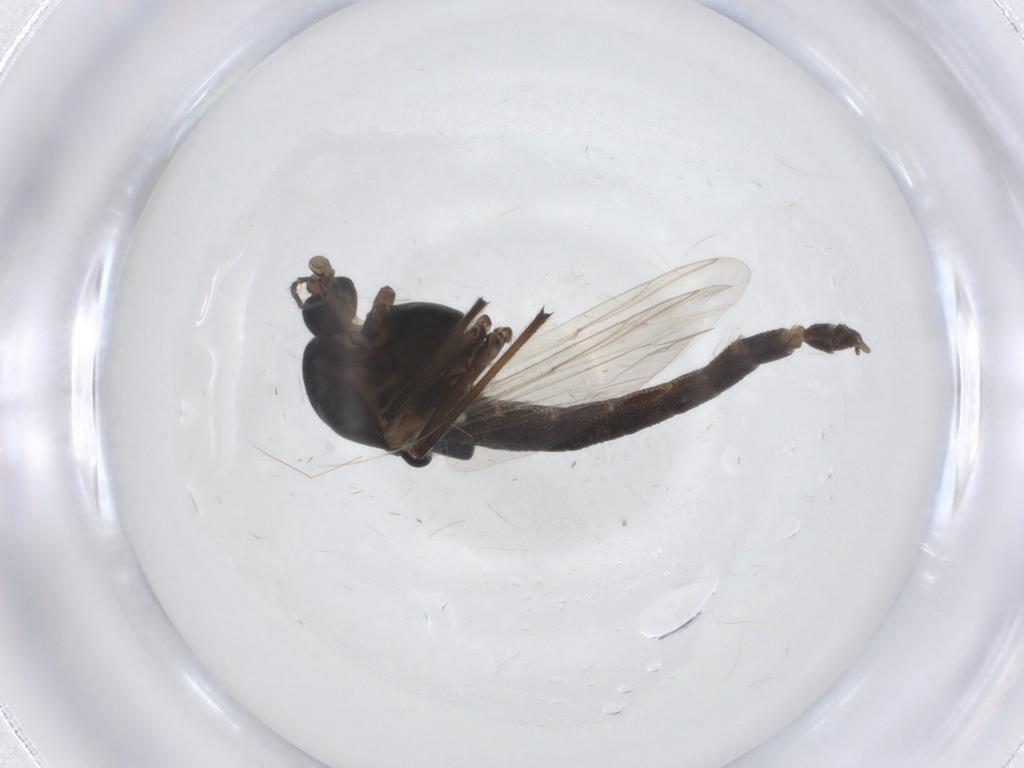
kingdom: Animalia
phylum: Arthropoda
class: Insecta
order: Diptera
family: Chironomidae
